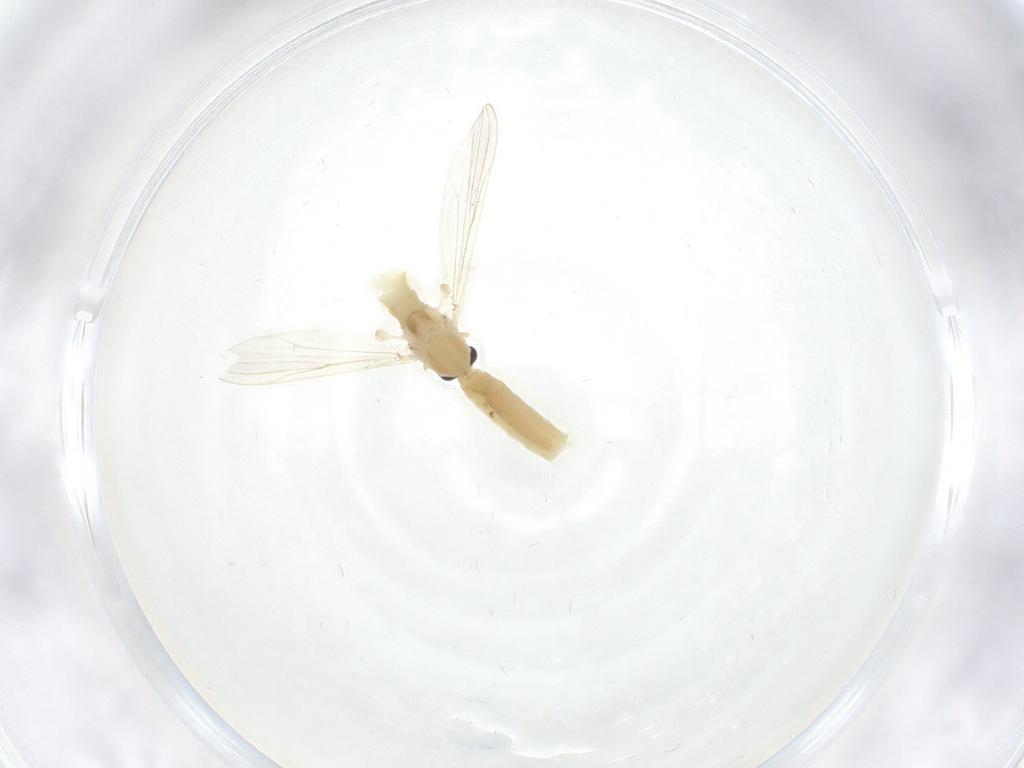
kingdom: Animalia
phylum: Arthropoda
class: Insecta
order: Diptera
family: Chironomidae
